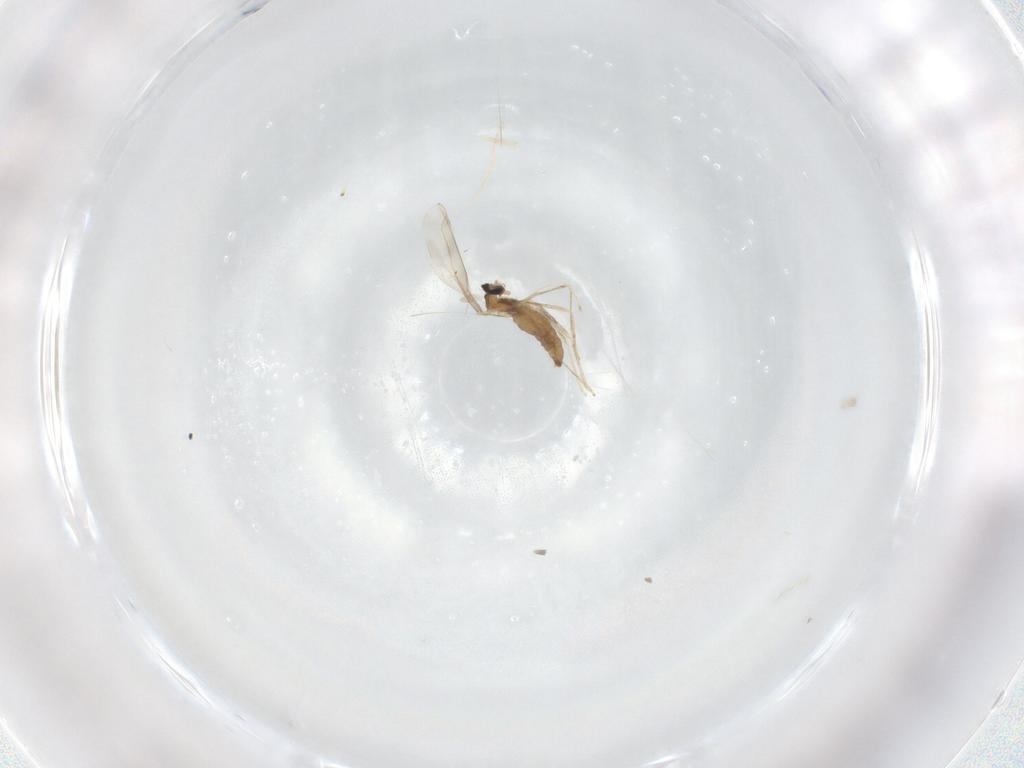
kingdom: Animalia
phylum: Arthropoda
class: Insecta
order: Diptera
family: Cecidomyiidae
